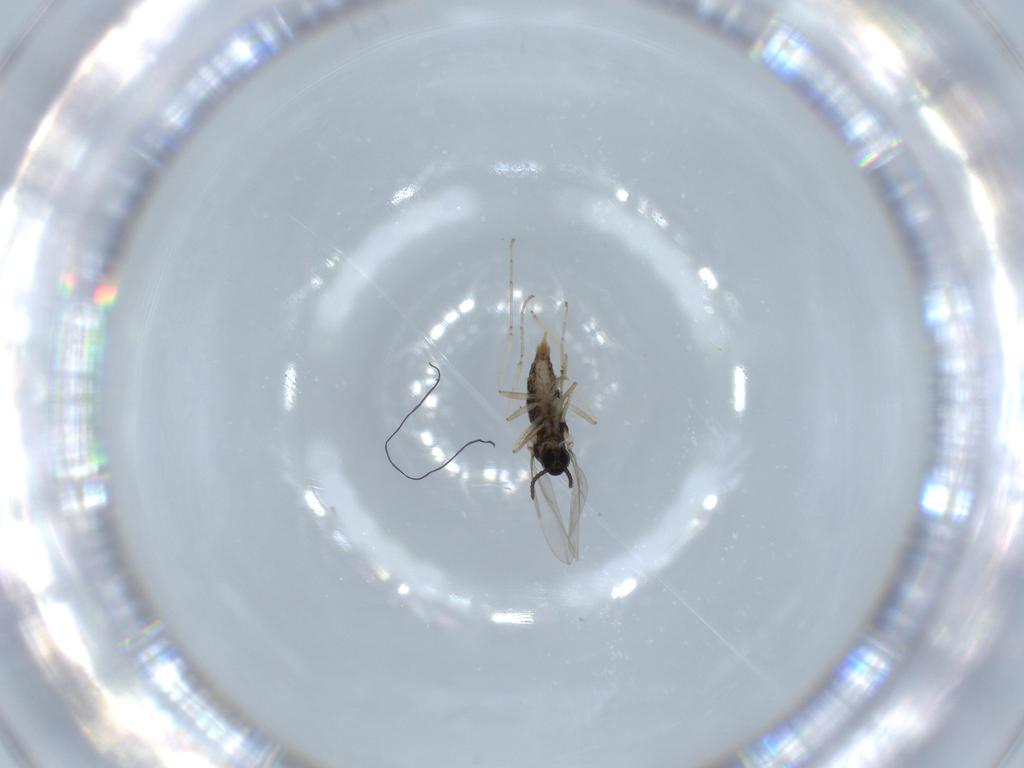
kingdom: Animalia
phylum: Arthropoda
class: Insecta
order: Diptera
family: Cecidomyiidae
